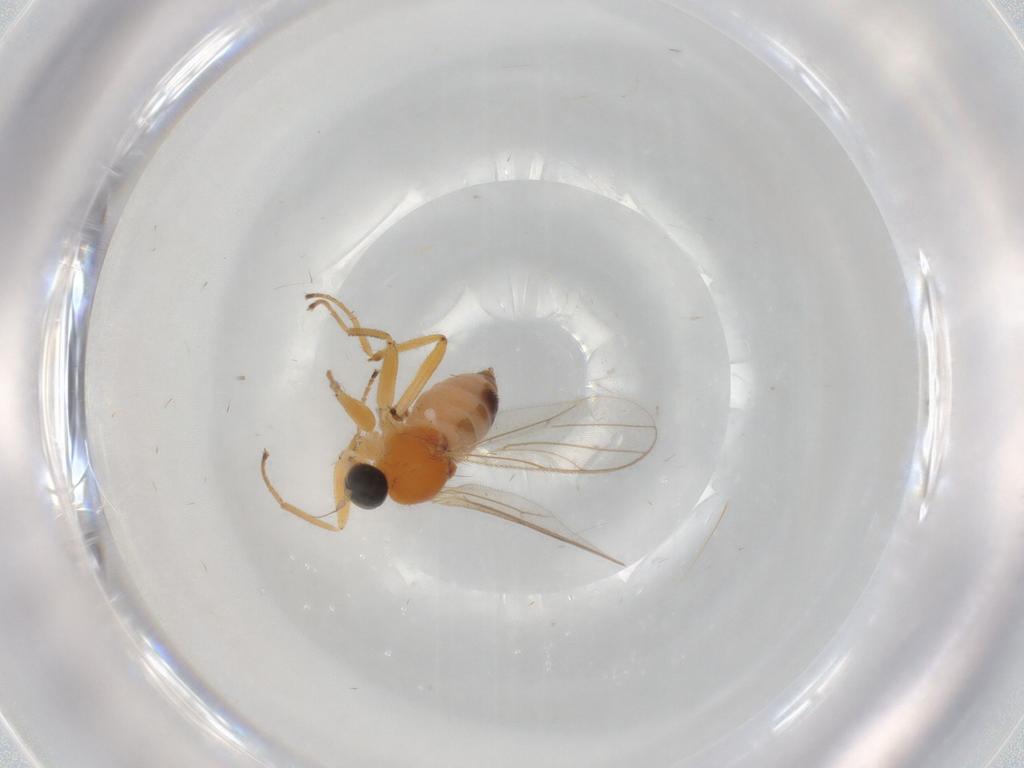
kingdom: Animalia
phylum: Arthropoda
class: Insecta
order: Diptera
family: Hybotidae
